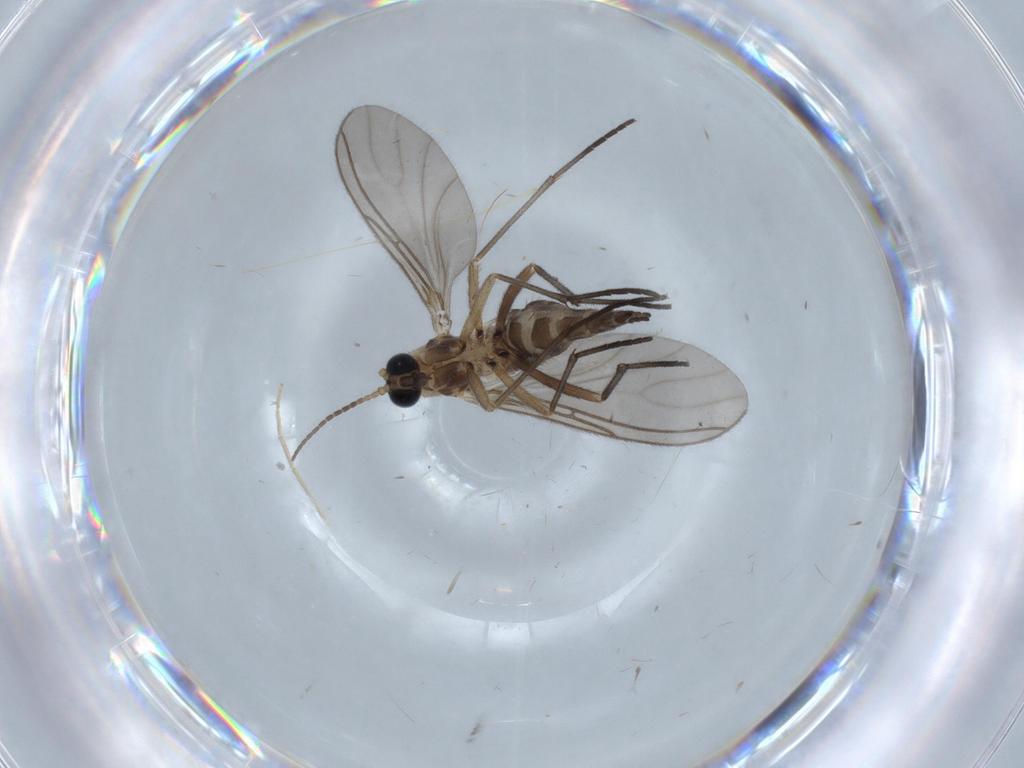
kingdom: Animalia
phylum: Arthropoda
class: Insecta
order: Diptera
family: Sciaridae
